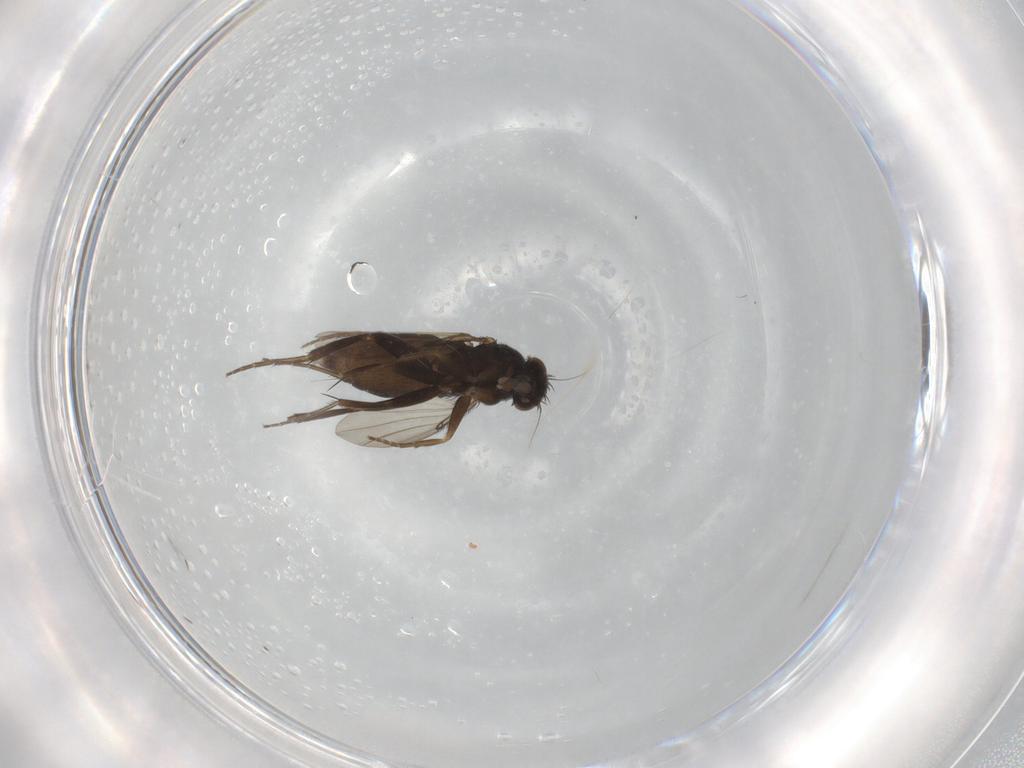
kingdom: Animalia
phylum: Arthropoda
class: Insecta
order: Diptera
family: Phoridae
